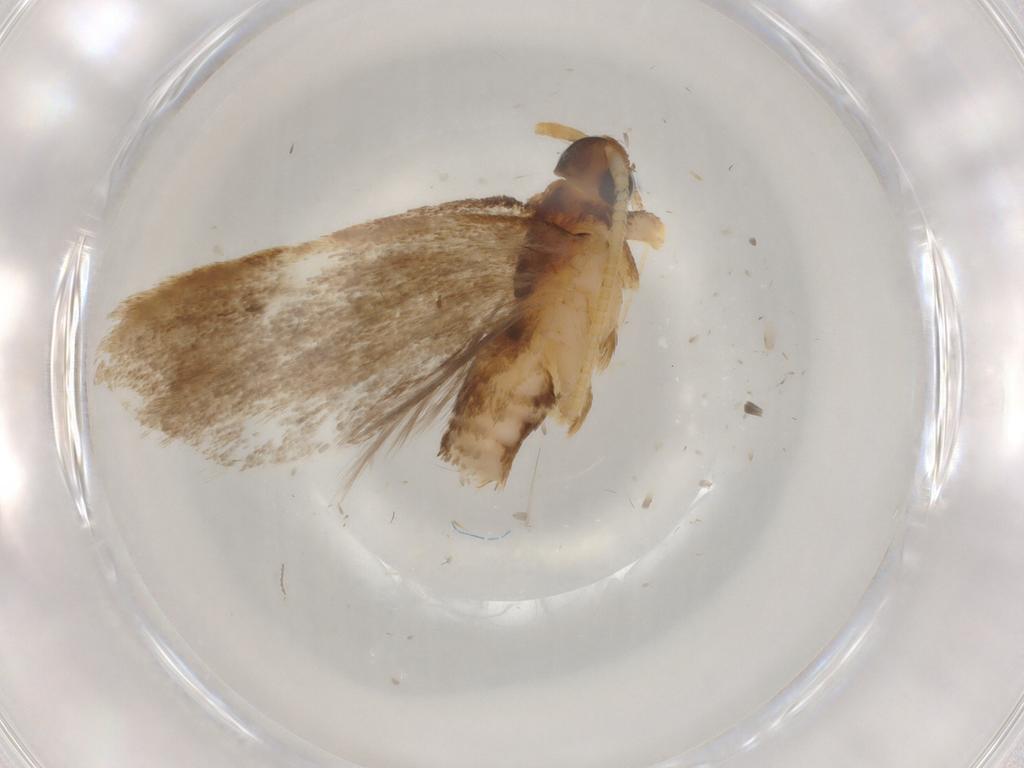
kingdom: Animalia
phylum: Arthropoda
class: Insecta
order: Lepidoptera
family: Lecithoceridae
